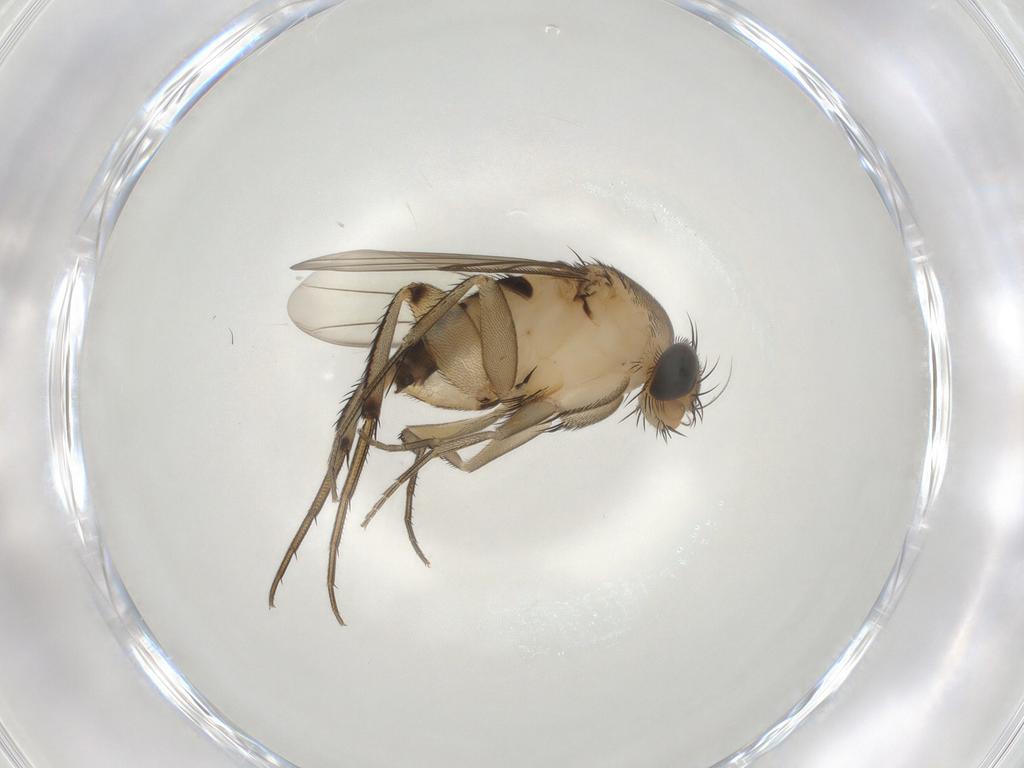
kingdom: Animalia
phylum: Arthropoda
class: Insecta
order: Diptera
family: Phoridae
